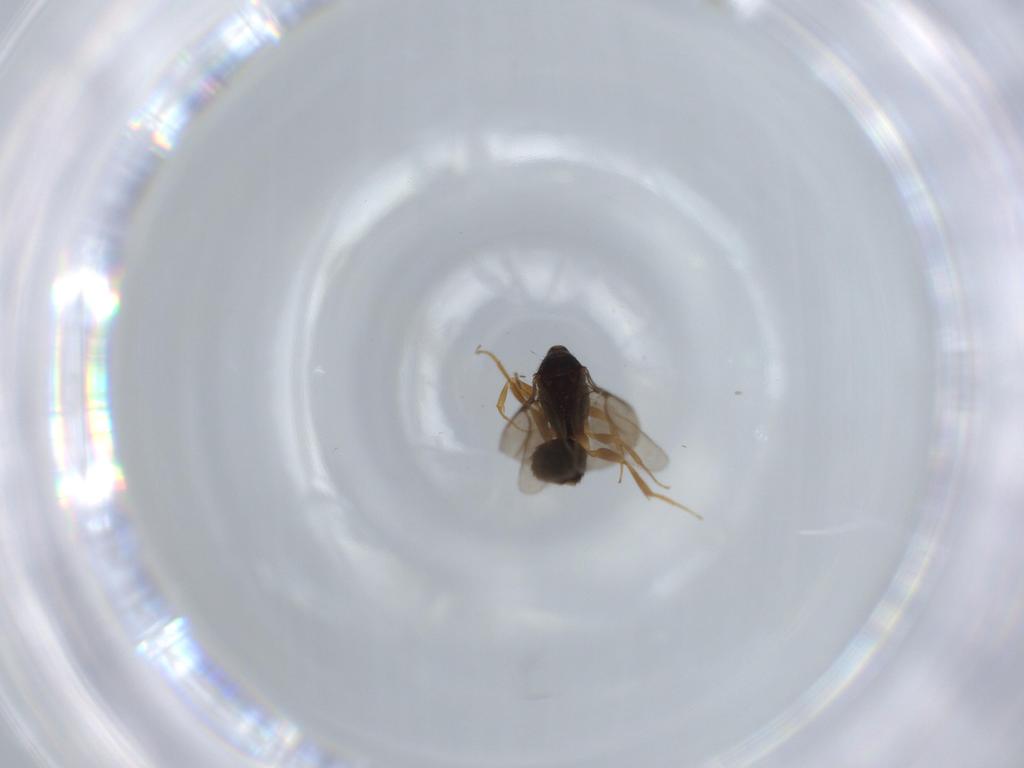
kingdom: Animalia
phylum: Arthropoda
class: Insecta
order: Hymenoptera
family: Bethylidae
